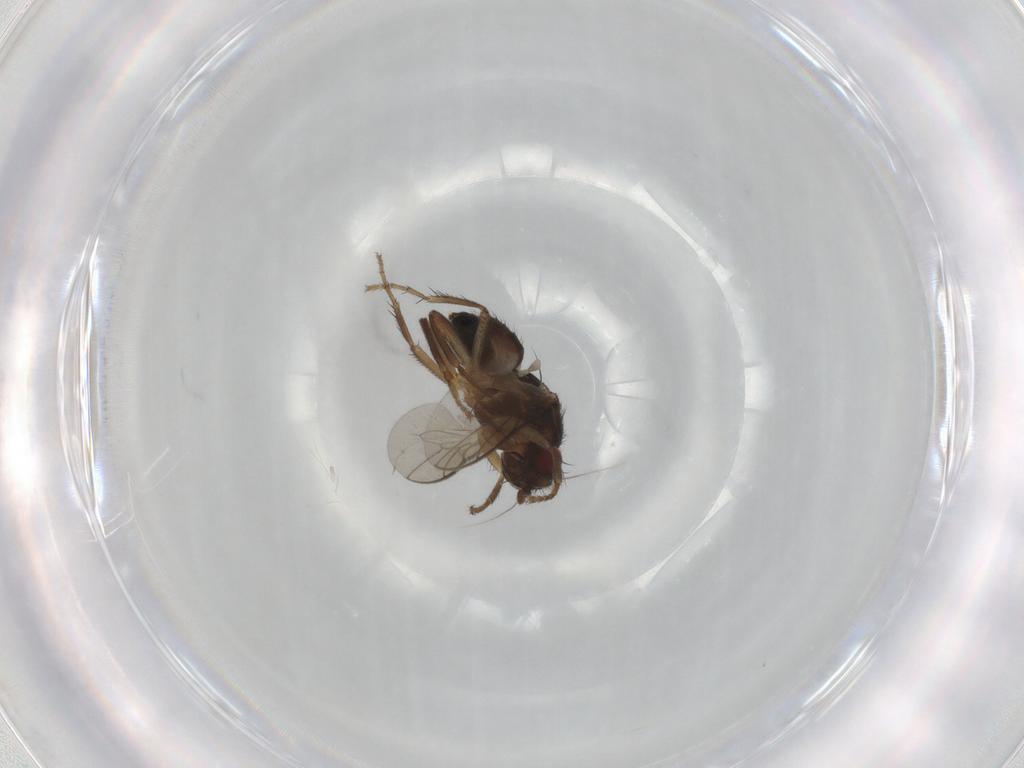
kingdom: Animalia
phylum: Arthropoda
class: Insecta
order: Diptera
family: Sphaeroceridae
